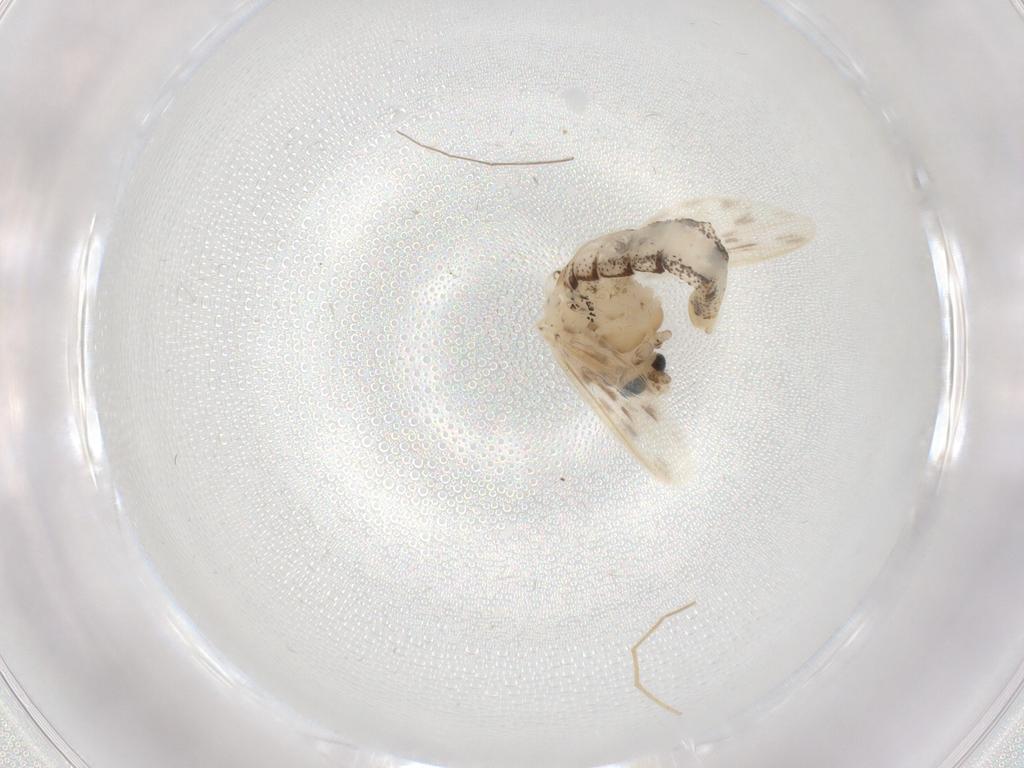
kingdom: Animalia
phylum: Arthropoda
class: Insecta
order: Diptera
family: Chaoboridae
